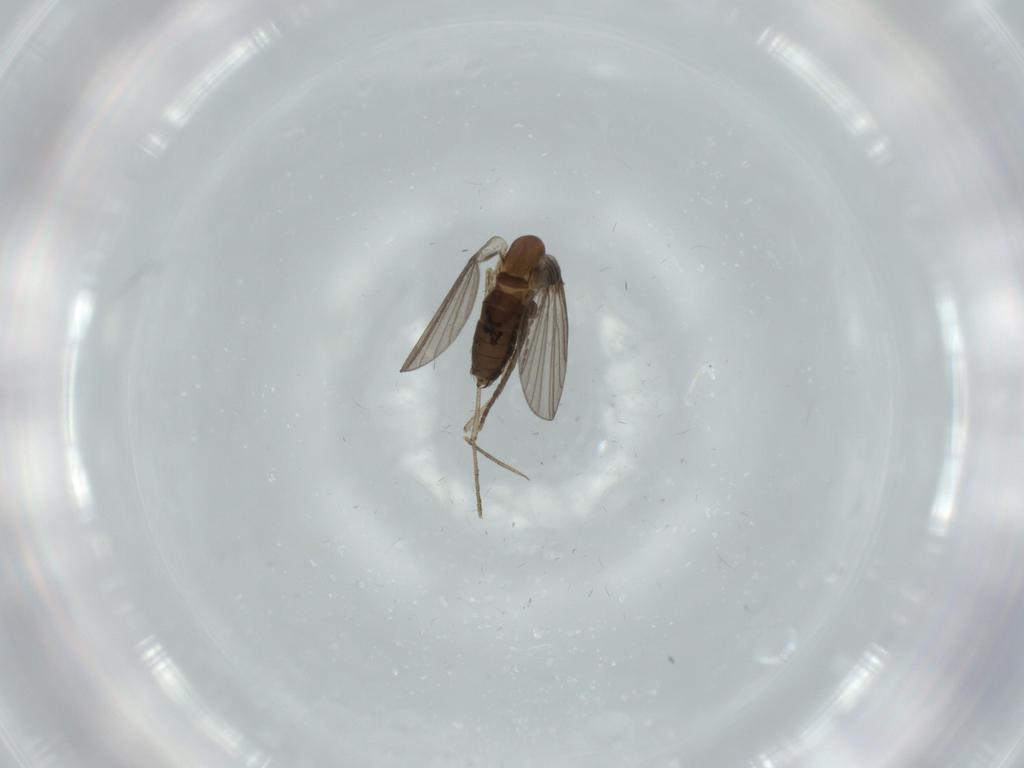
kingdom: Animalia
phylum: Arthropoda
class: Insecta
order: Diptera
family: Psychodidae
